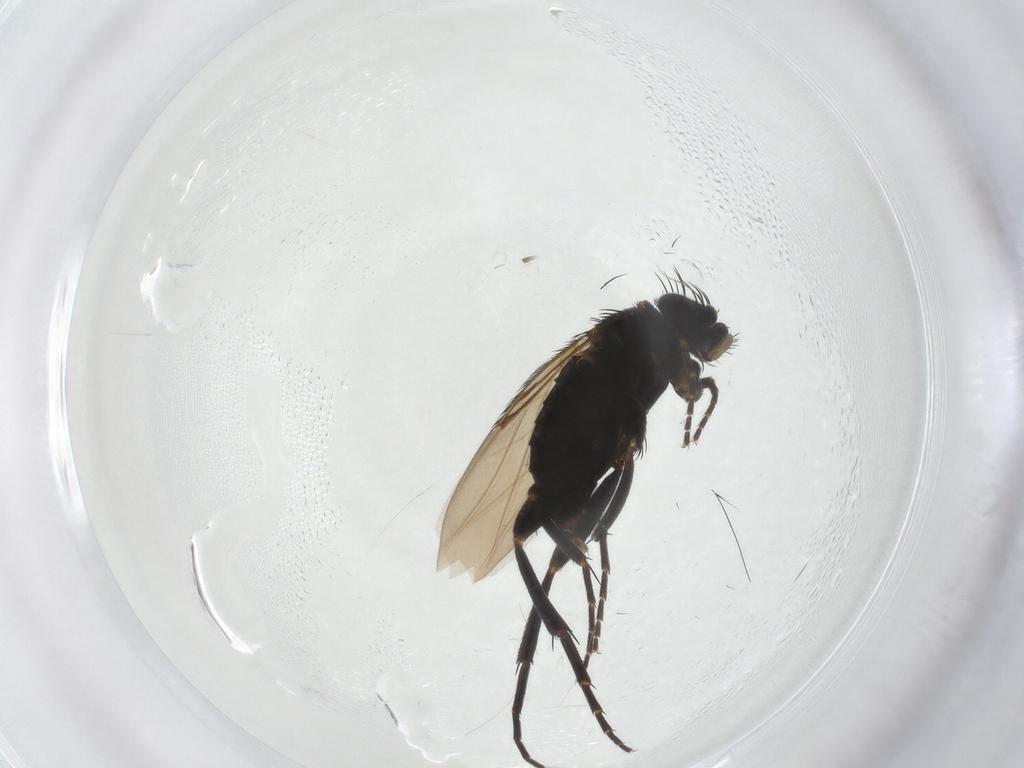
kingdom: Animalia
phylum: Arthropoda
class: Insecta
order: Diptera
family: Phoridae
